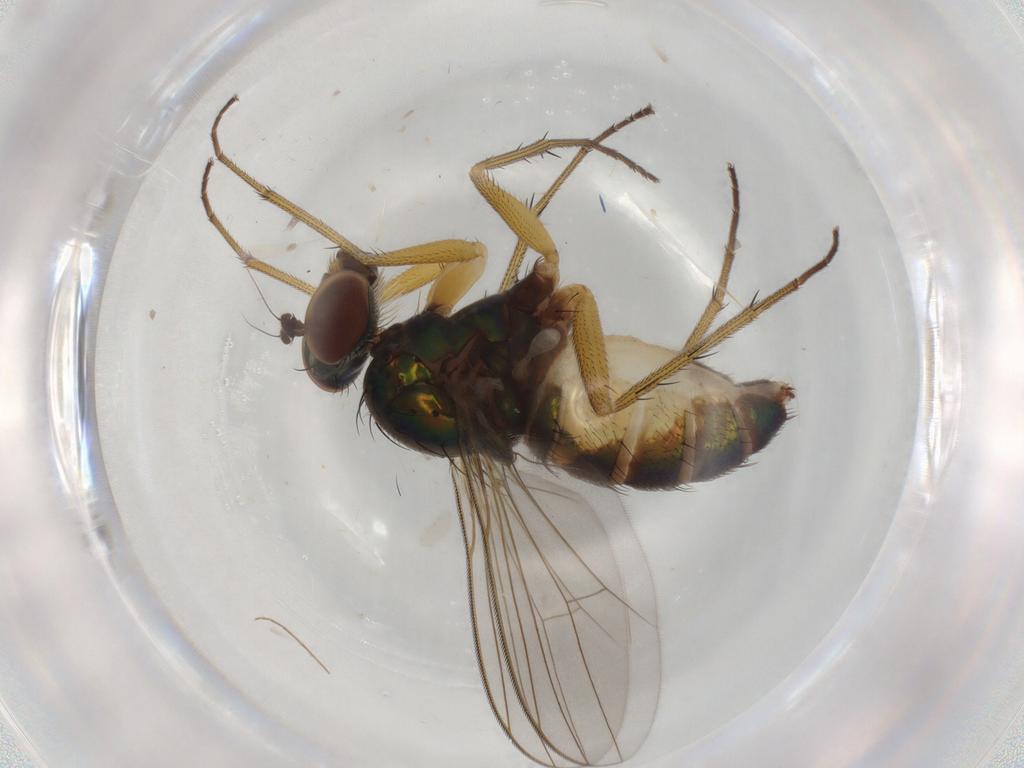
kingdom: Animalia
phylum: Arthropoda
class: Insecta
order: Diptera
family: Chironomidae
